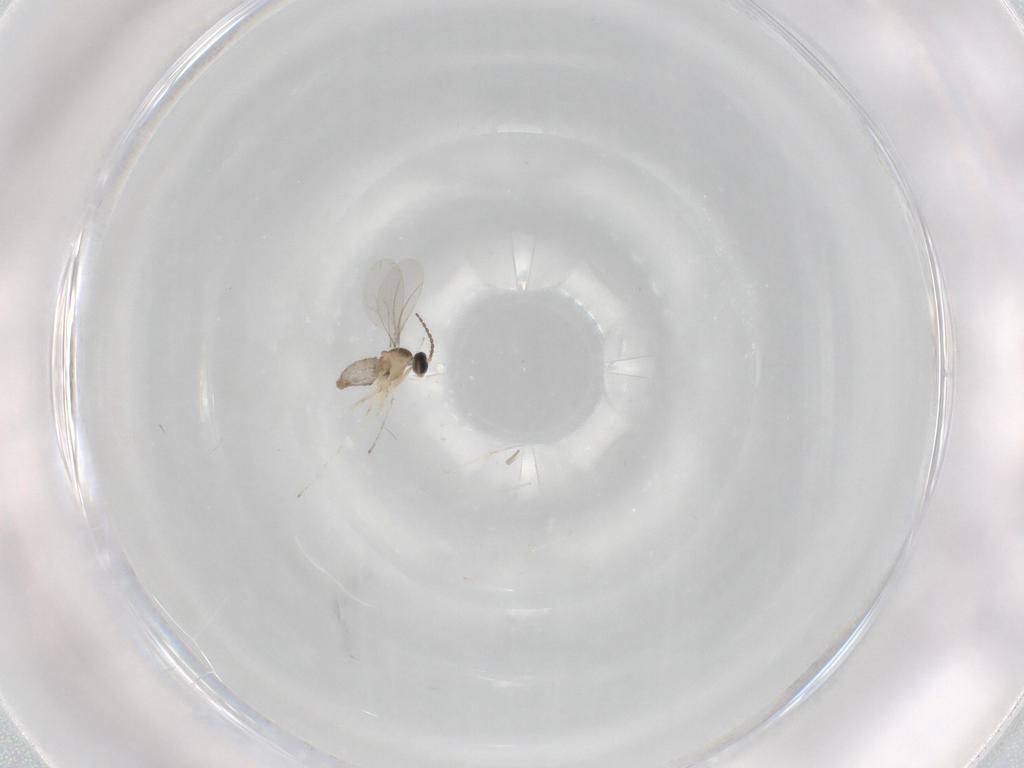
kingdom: Animalia
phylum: Arthropoda
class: Insecta
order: Diptera
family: Cecidomyiidae
